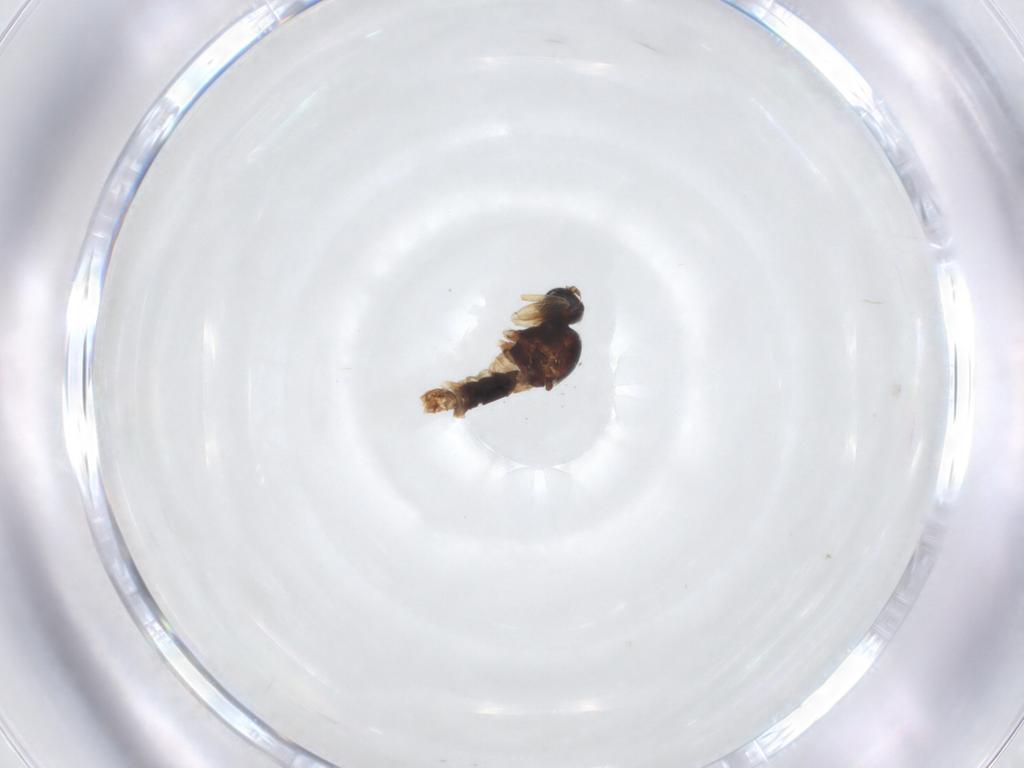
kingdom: Animalia
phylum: Arthropoda
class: Insecta
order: Diptera
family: Hybotidae
